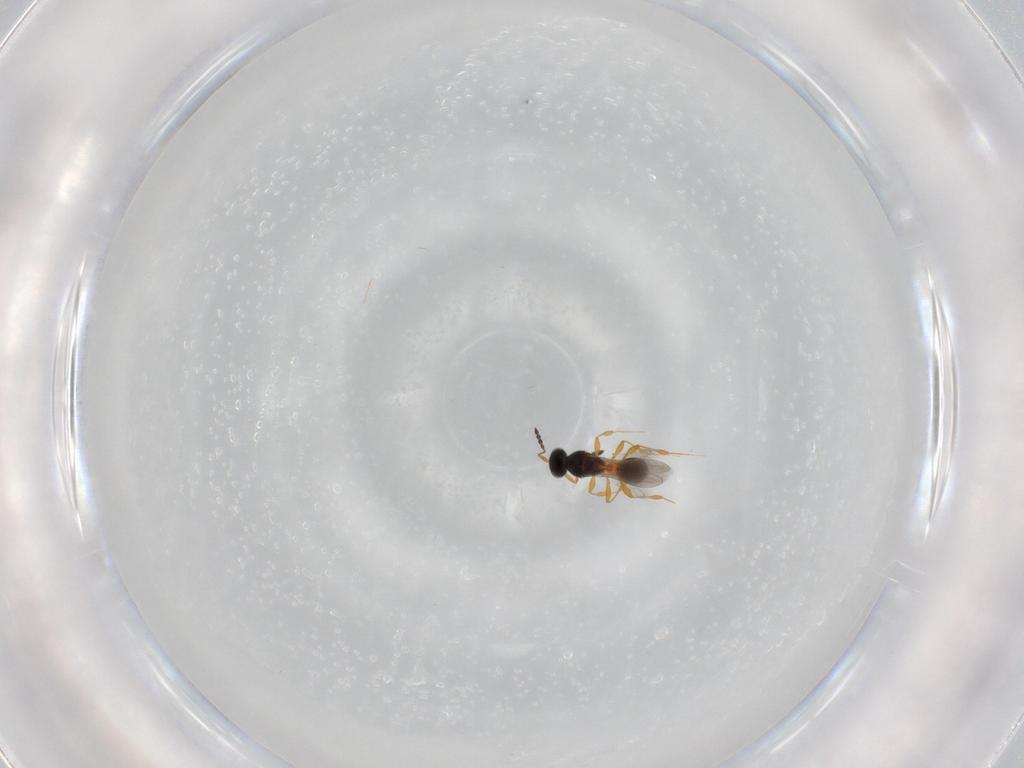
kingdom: Animalia
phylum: Arthropoda
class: Insecta
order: Hymenoptera
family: Platygastridae
